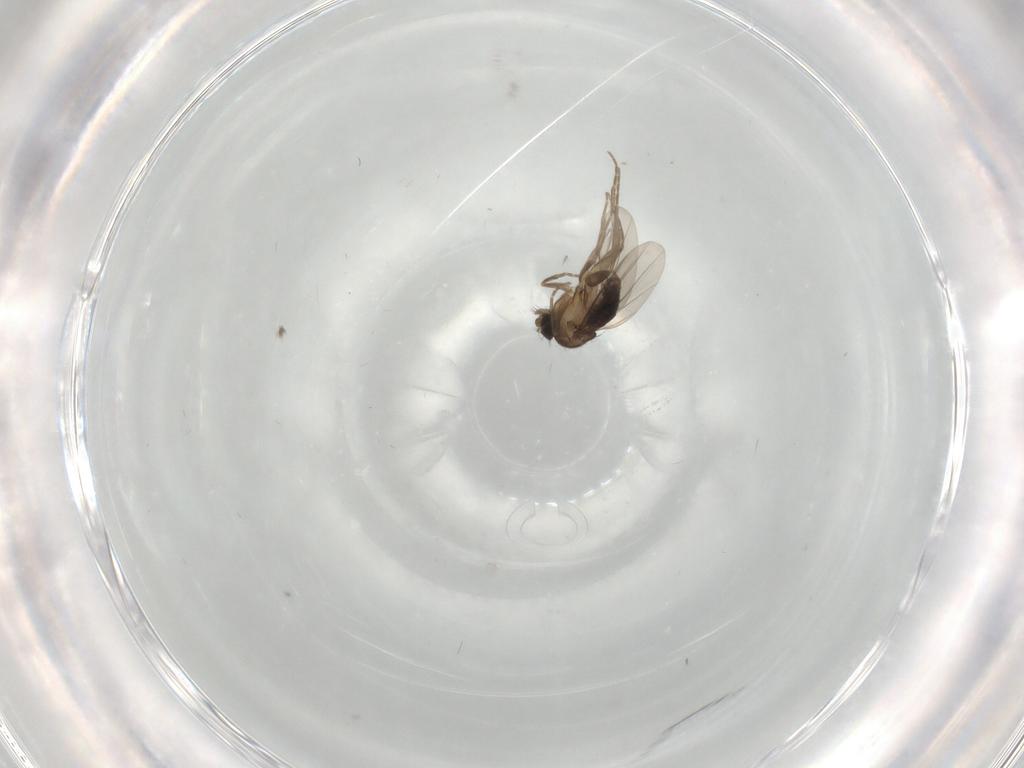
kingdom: Animalia
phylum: Arthropoda
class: Insecta
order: Diptera
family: Phoridae
